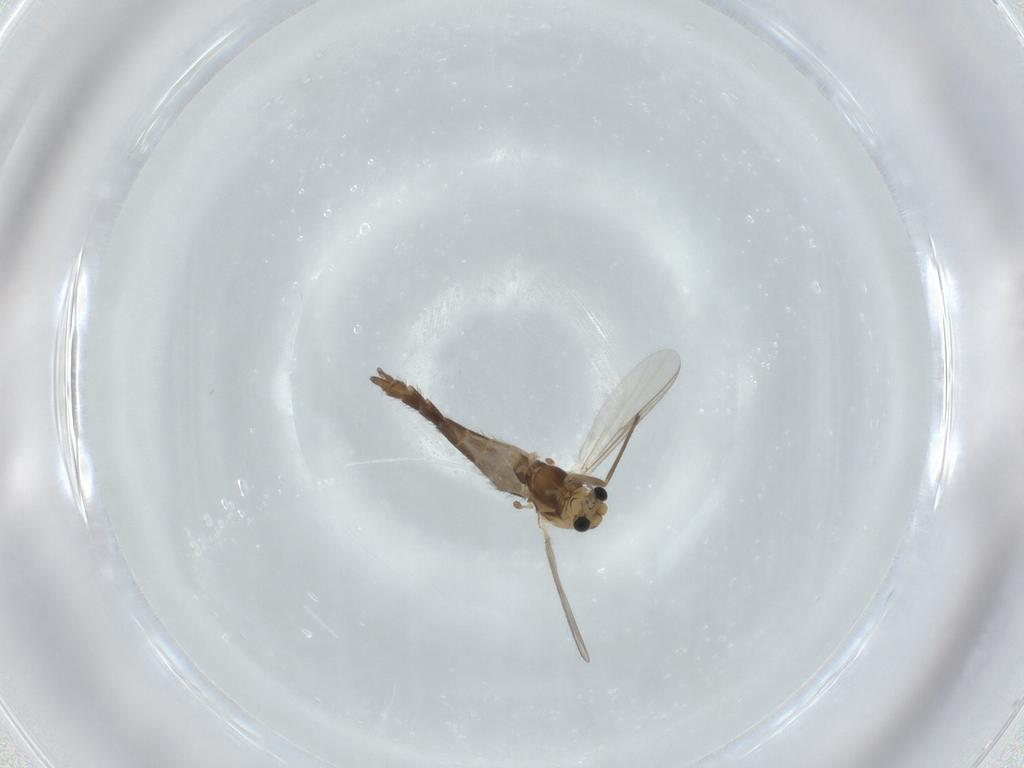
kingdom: Animalia
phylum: Arthropoda
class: Insecta
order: Diptera
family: Chironomidae
